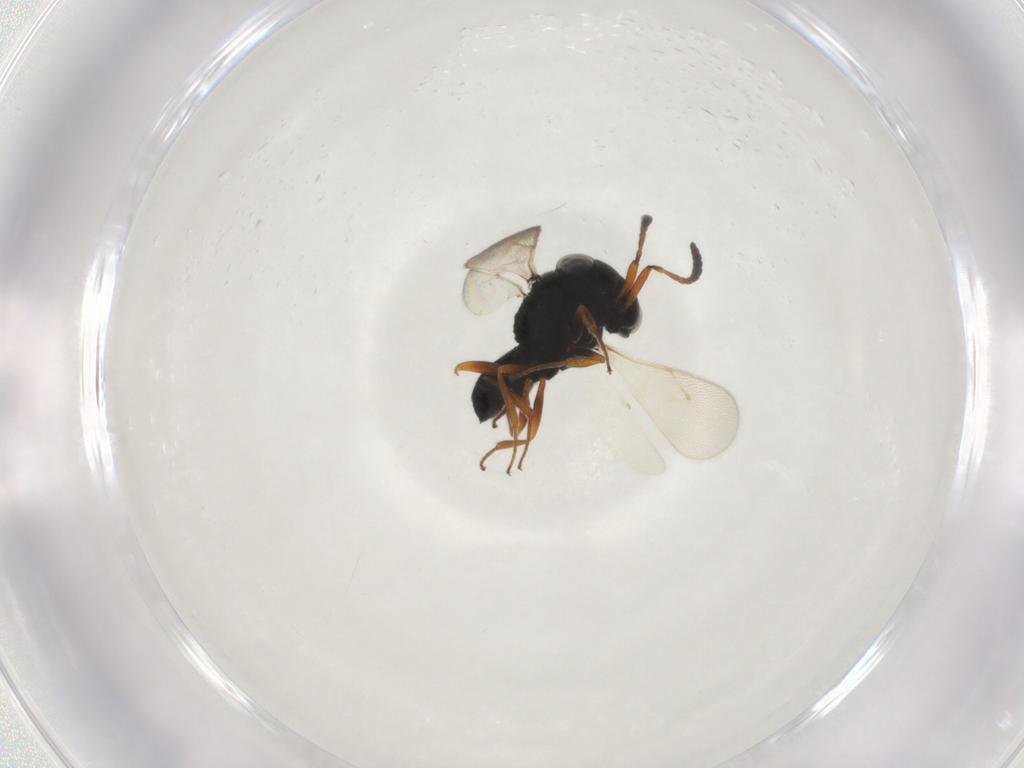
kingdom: Animalia
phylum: Arthropoda
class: Insecta
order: Hymenoptera
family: Scelionidae
